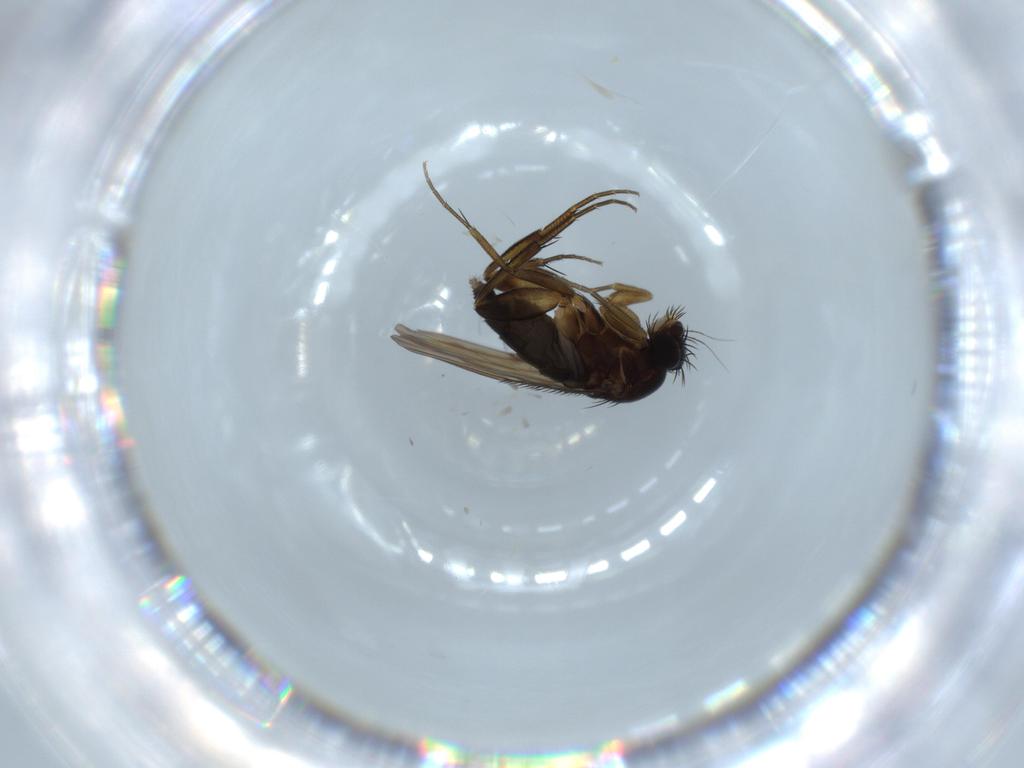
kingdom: Animalia
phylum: Arthropoda
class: Insecta
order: Diptera
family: Phoridae
